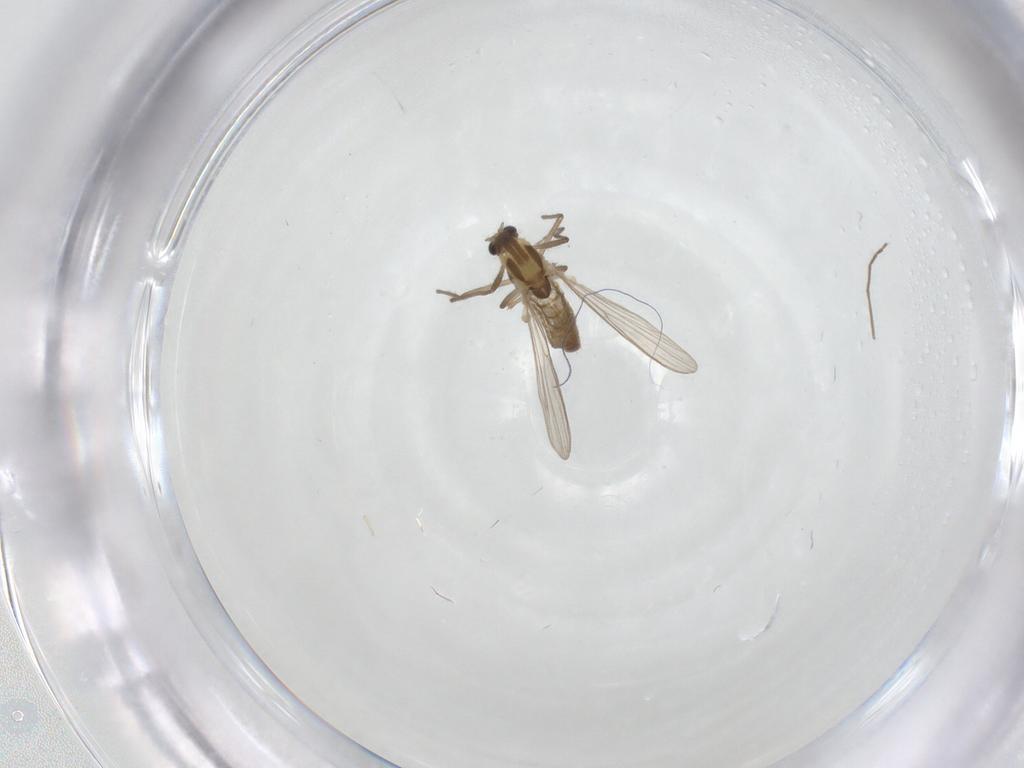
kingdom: Animalia
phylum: Arthropoda
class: Insecta
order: Diptera
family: Chironomidae
